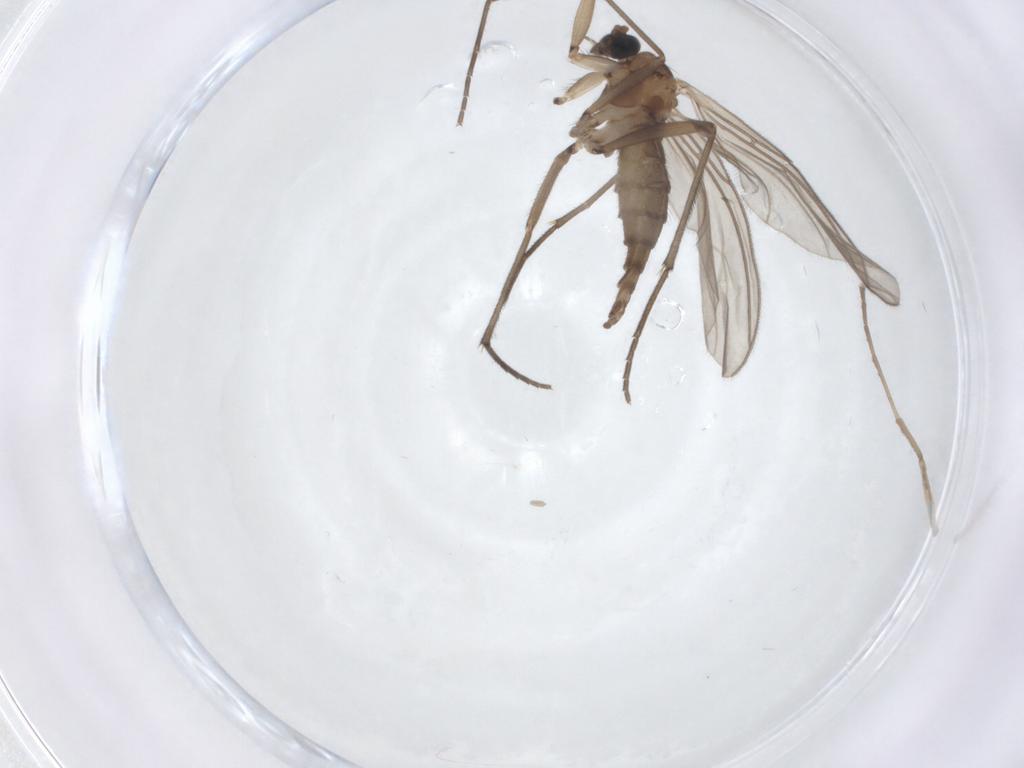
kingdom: Animalia
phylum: Arthropoda
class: Insecta
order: Diptera
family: Sciaridae
